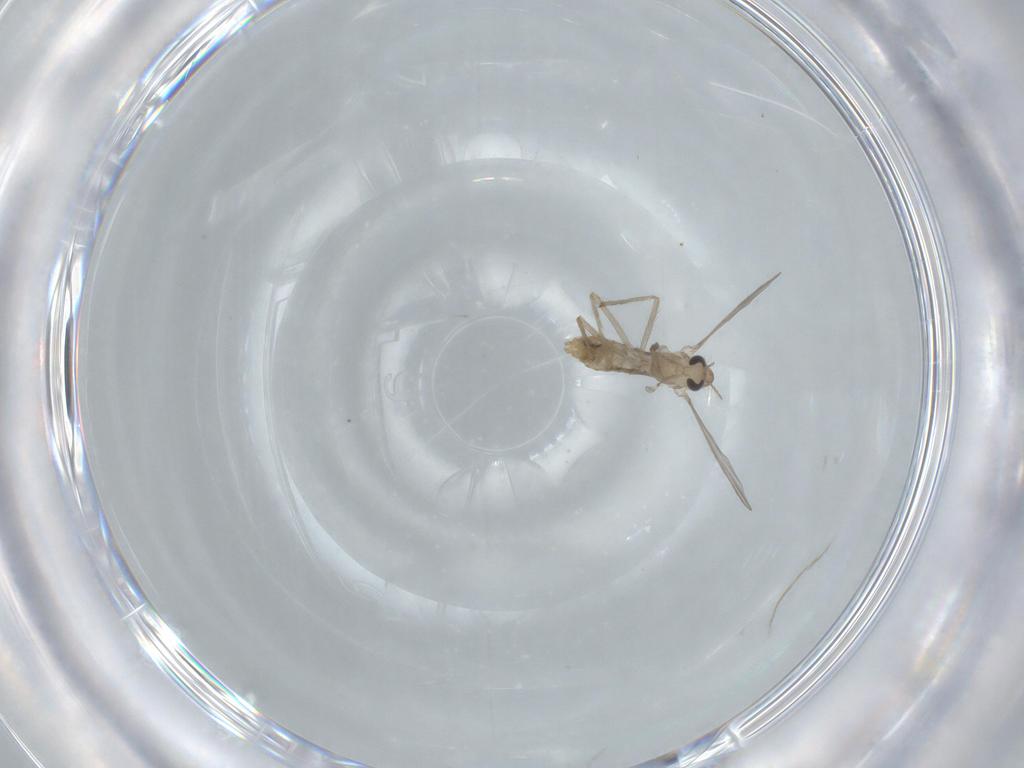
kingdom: Animalia
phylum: Arthropoda
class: Insecta
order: Diptera
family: Chironomidae
